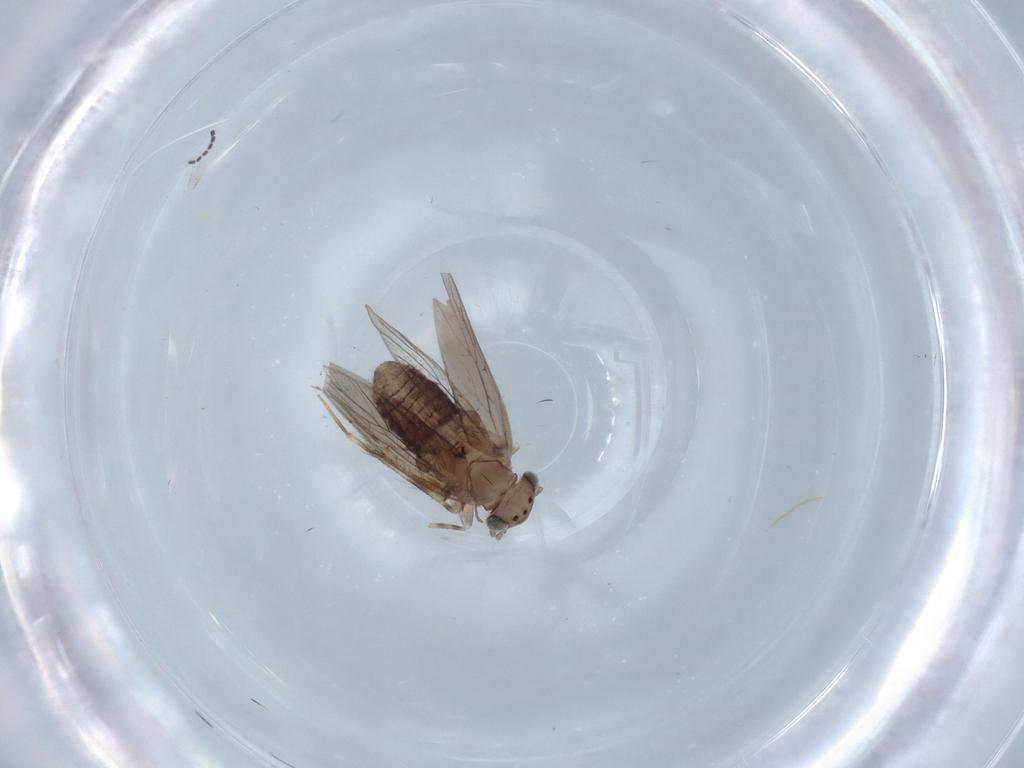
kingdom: Animalia
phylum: Arthropoda
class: Insecta
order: Psocodea
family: Lepidopsocidae
